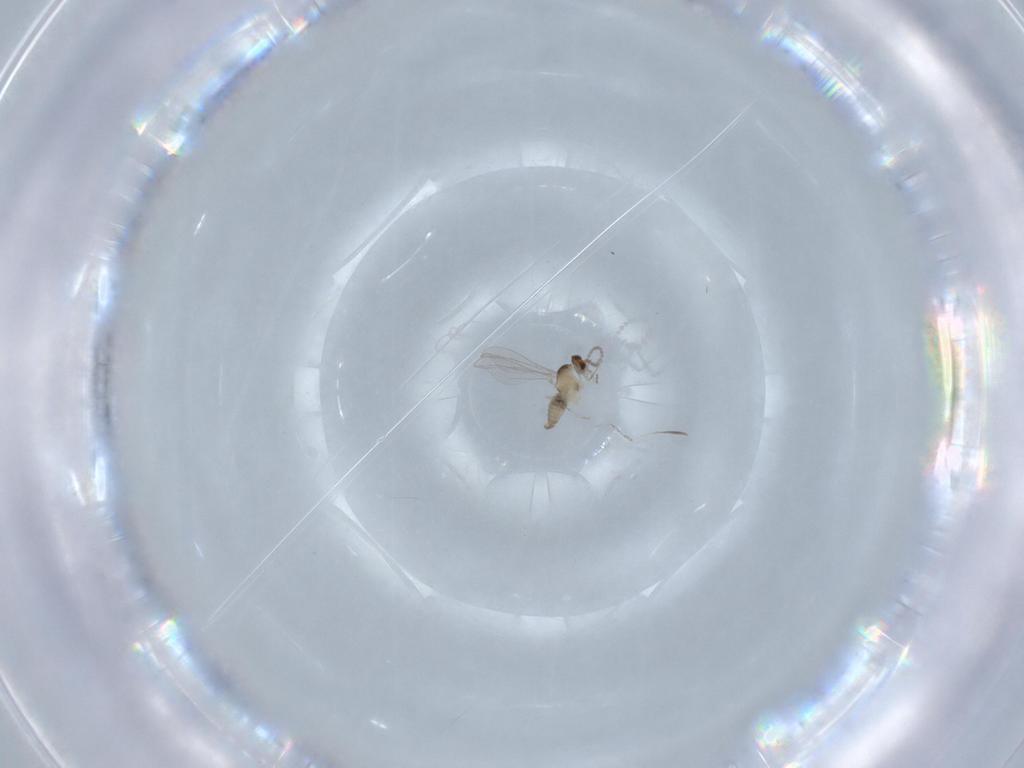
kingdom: Animalia
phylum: Arthropoda
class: Insecta
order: Diptera
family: Cecidomyiidae
